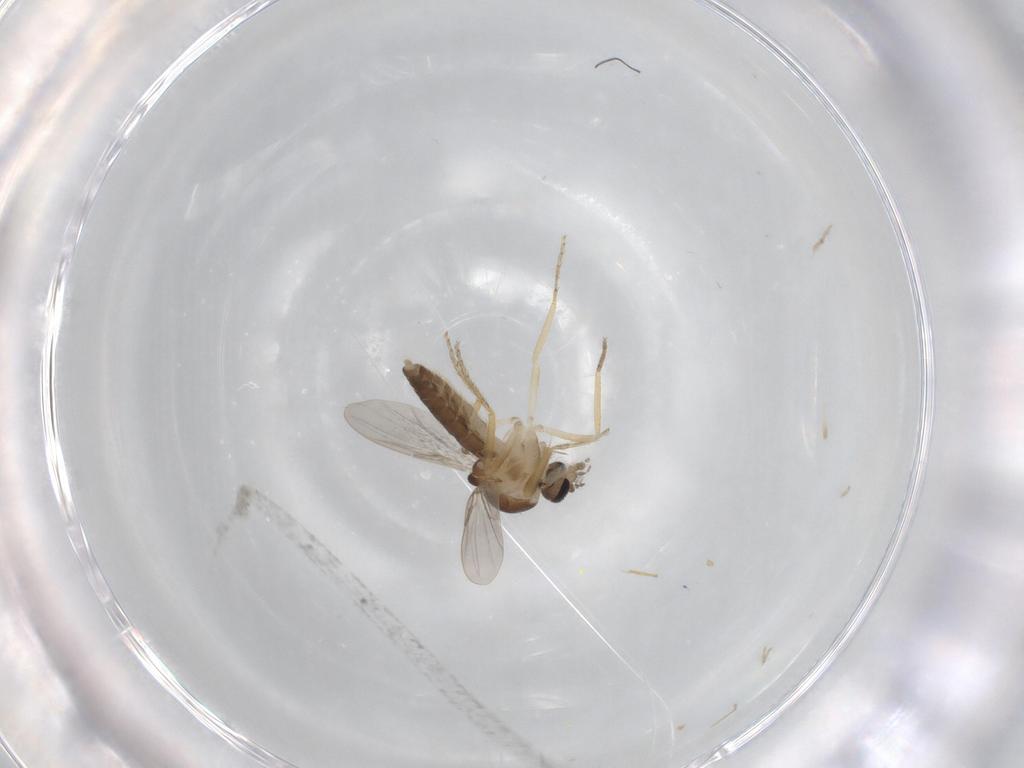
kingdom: Animalia
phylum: Arthropoda
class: Insecta
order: Diptera
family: Ceratopogonidae
